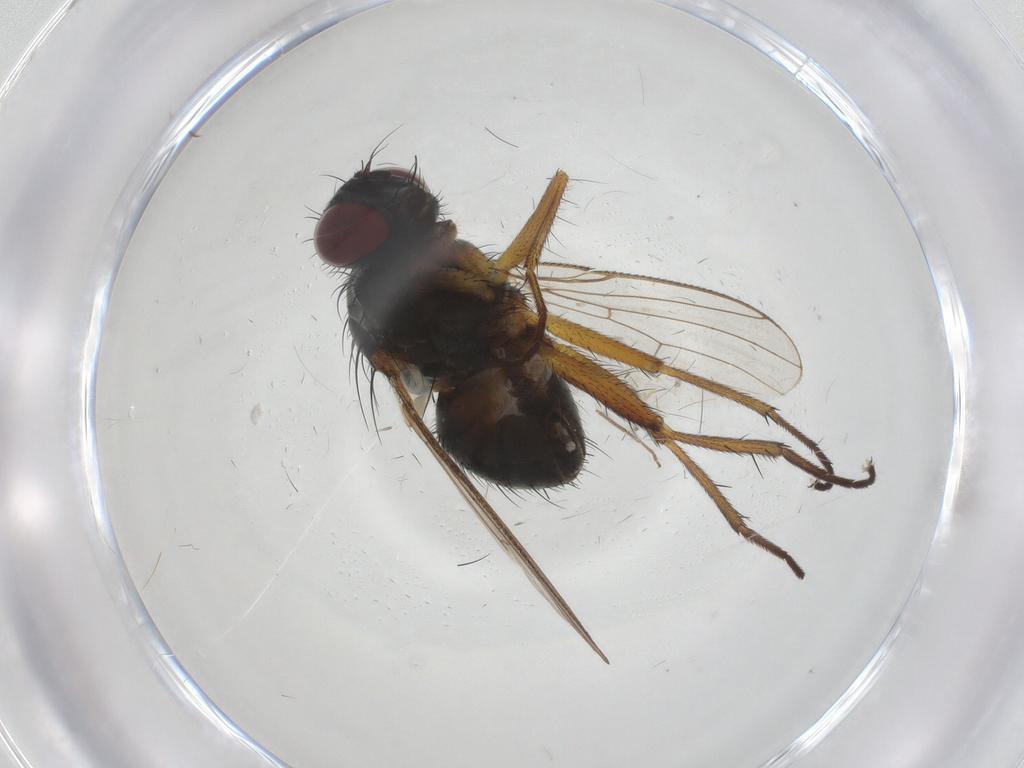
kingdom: Animalia
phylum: Arthropoda
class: Insecta
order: Diptera
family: Muscidae
